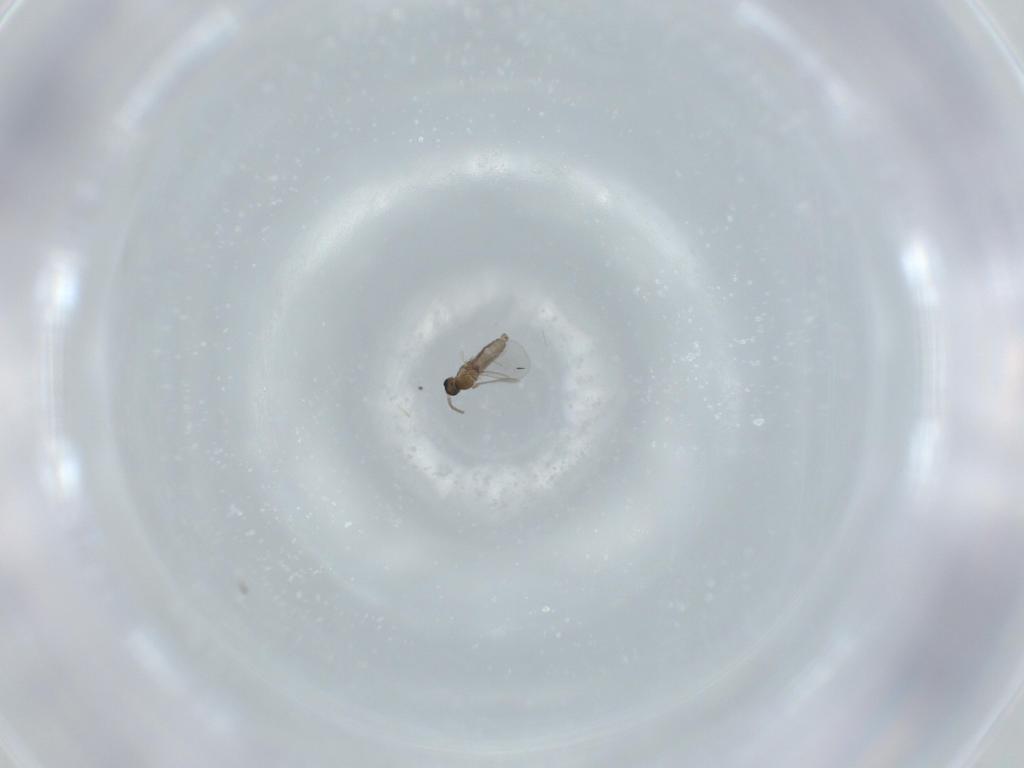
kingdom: Animalia
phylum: Arthropoda
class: Insecta
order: Diptera
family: Cecidomyiidae
